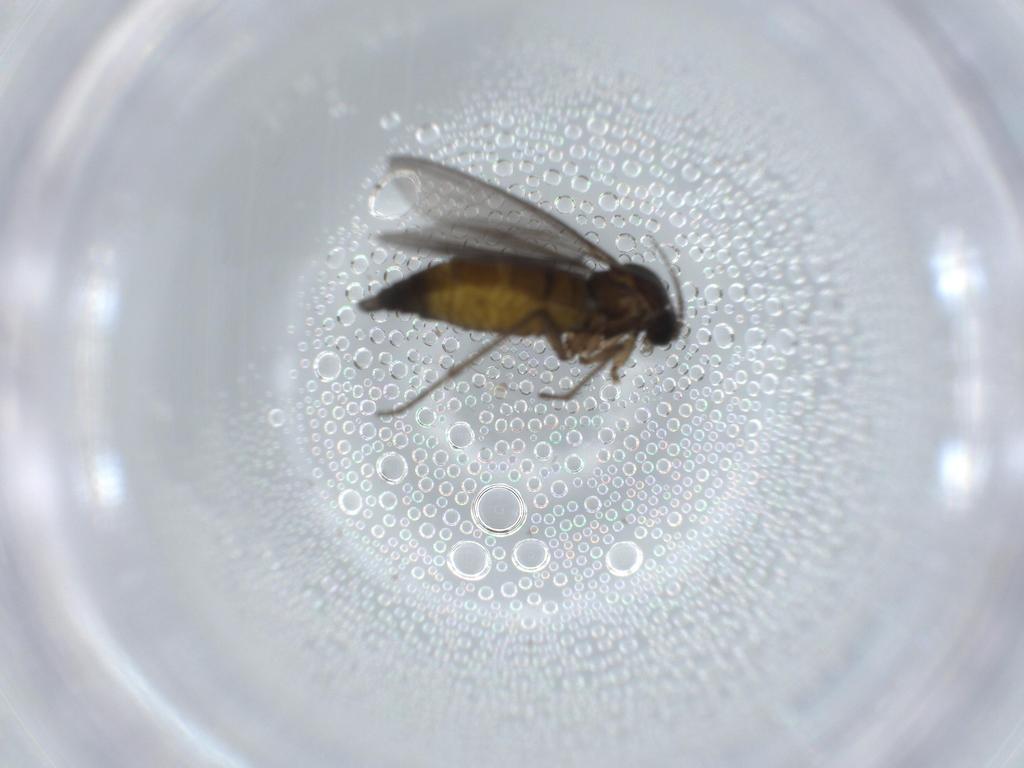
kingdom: Animalia
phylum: Arthropoda
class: Insecta
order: Diptera
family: Sciaridae
